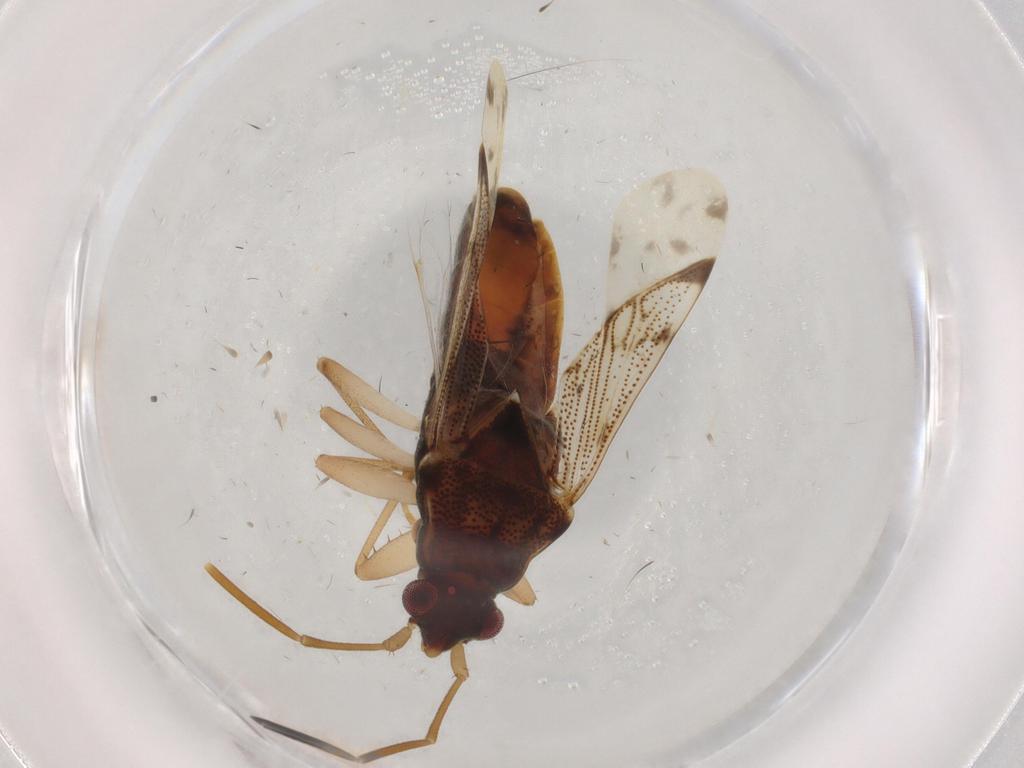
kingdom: Animalia
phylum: Arthropoda
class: Insecta
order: Hemiptera
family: Rhyparochromidae
